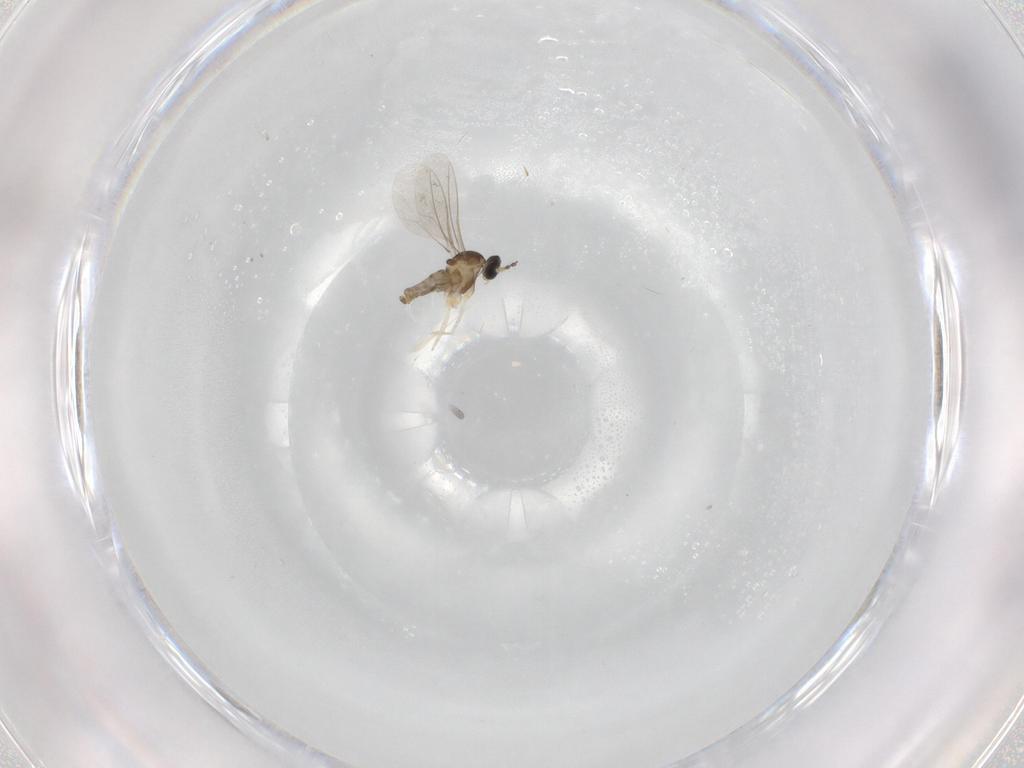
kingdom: Animalia
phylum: Arthropoda
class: Insecta
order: Diptera
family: Cecidomyiidae
